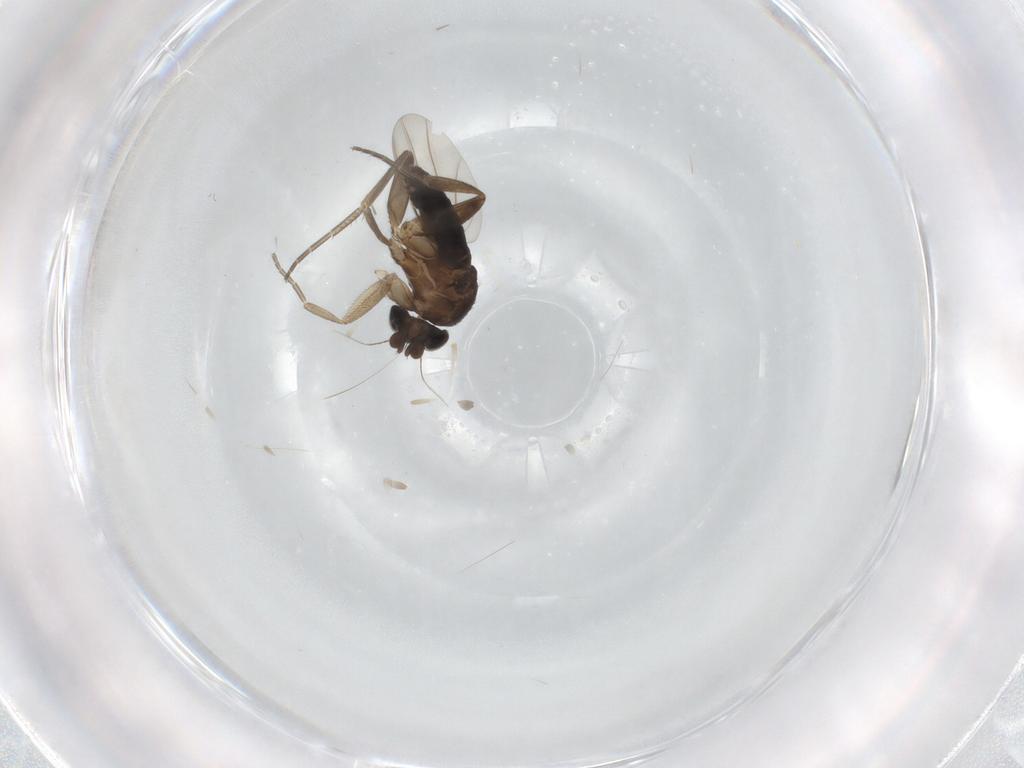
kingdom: Animalia
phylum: Arthropoda
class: Insecta
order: Diptera
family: Phoridae
